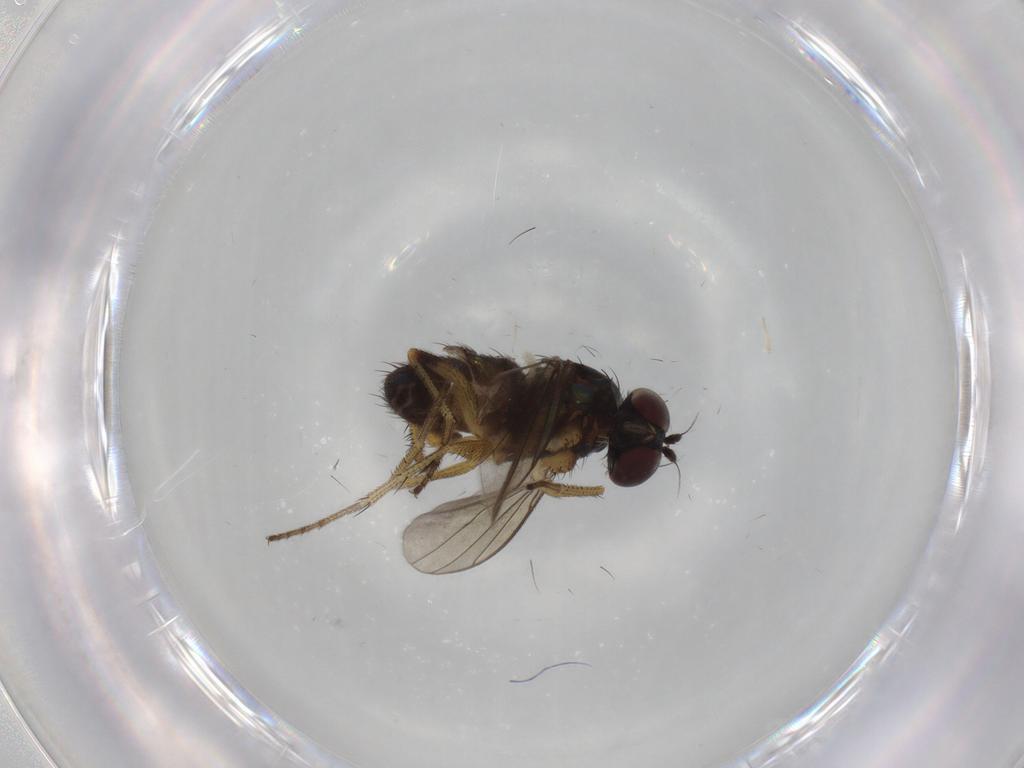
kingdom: Animalia
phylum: Arthropoda
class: Insecta
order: Diptera
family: Dolichopodidae
